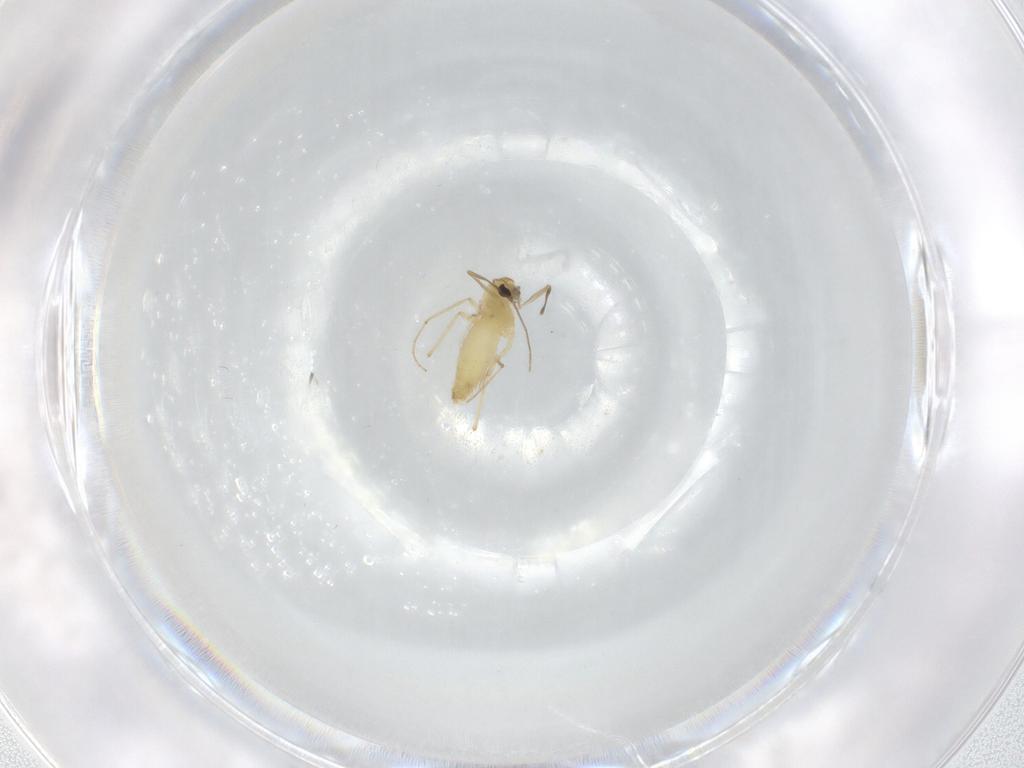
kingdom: Animalia
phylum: Arthropoda
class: Insecta
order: Diptera
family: Chironomidae
